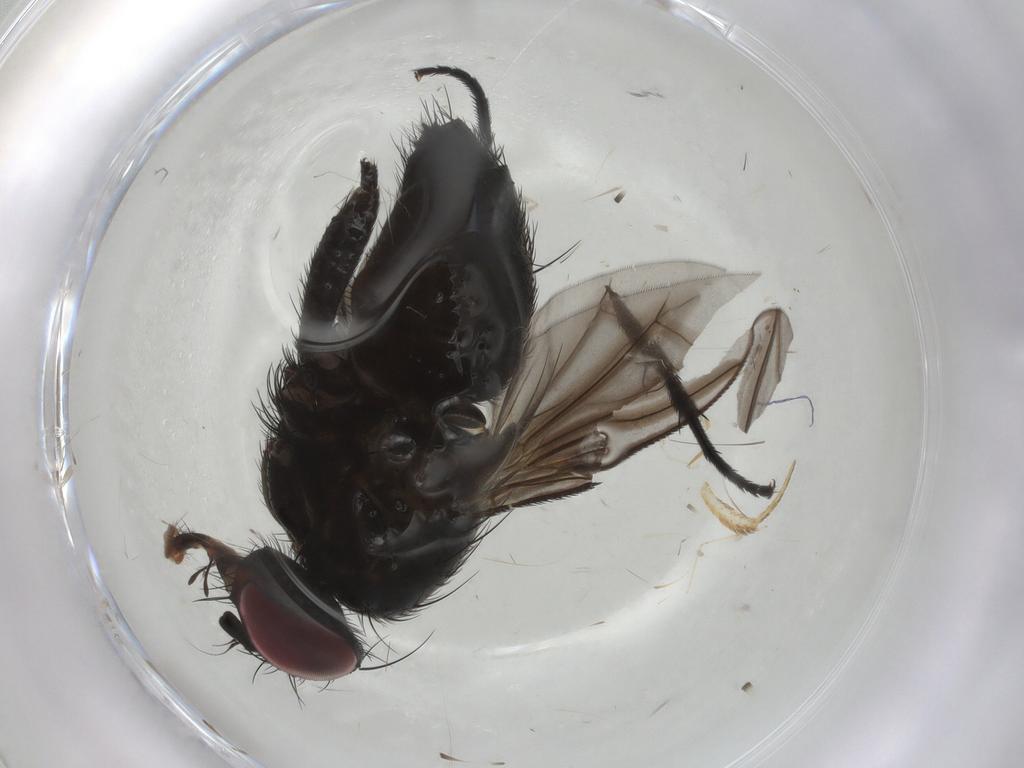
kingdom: Animalia
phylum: Arthropoda
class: Insecta
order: Diptera
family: Calliphoridae
